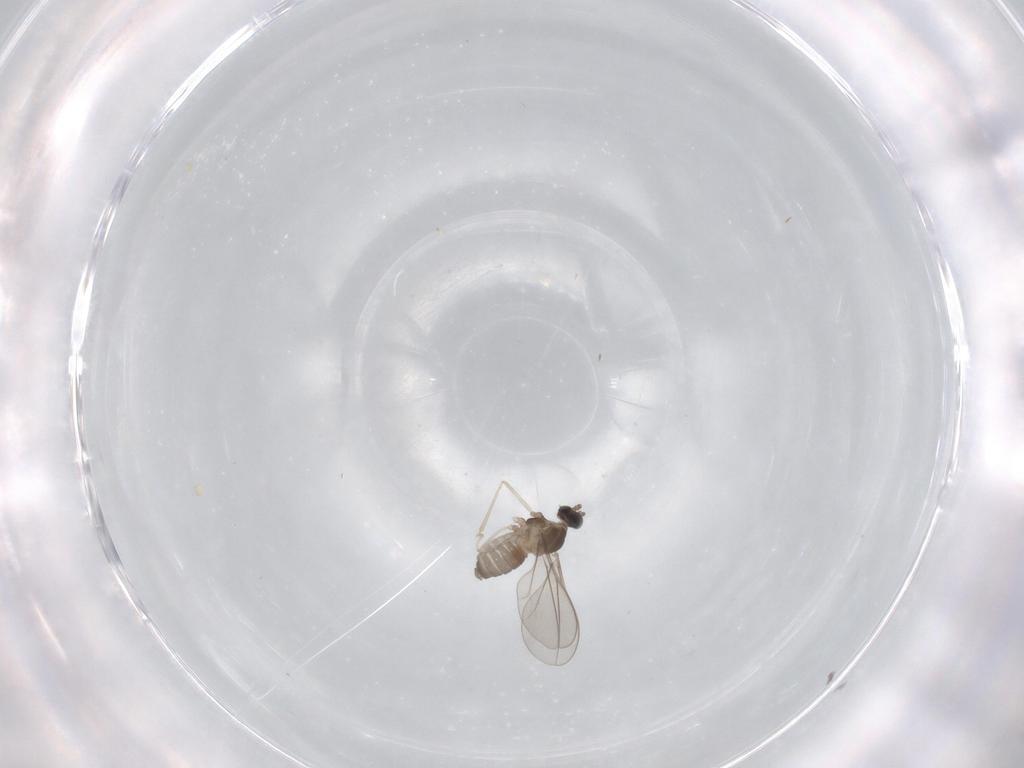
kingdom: Animalia
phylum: Arthropoda
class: Insecta
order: Diptera
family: Cecidomyiidae
